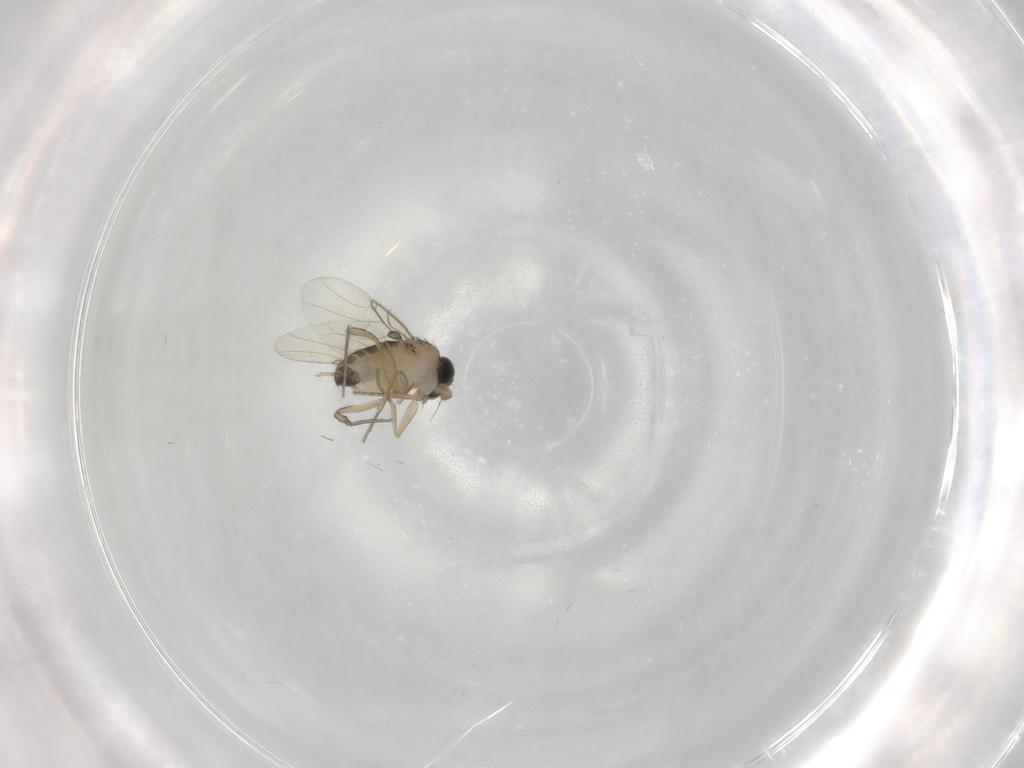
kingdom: Animalia
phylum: Arthropoda
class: Insecta
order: Diptera
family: Phoridae
